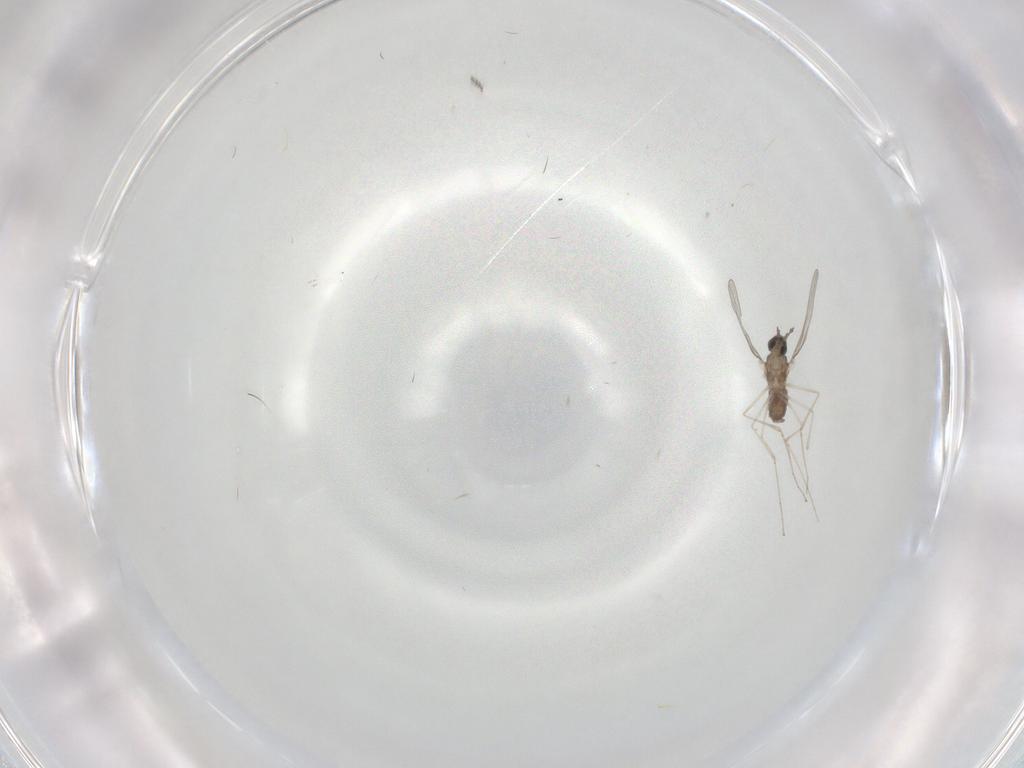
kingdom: Animalia
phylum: Arthropoda
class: Insecta
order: Diptera
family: Cecidomyiidae
